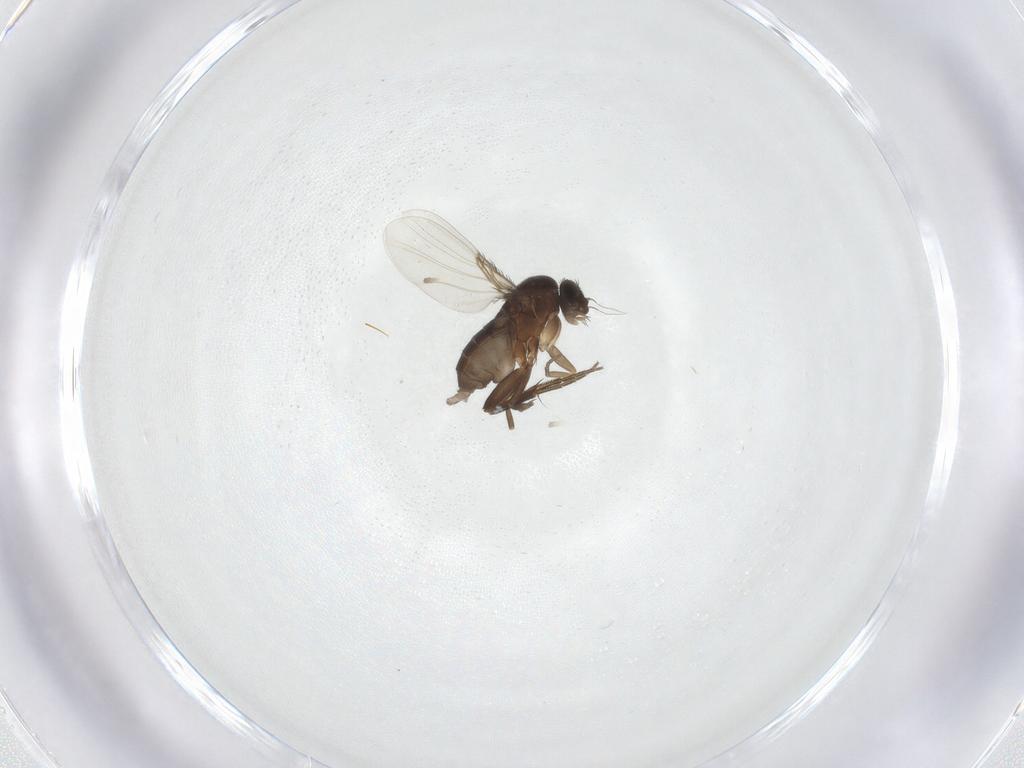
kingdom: Animalia
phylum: Arthropoda
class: Insecta
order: Diptera
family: Phoridae
